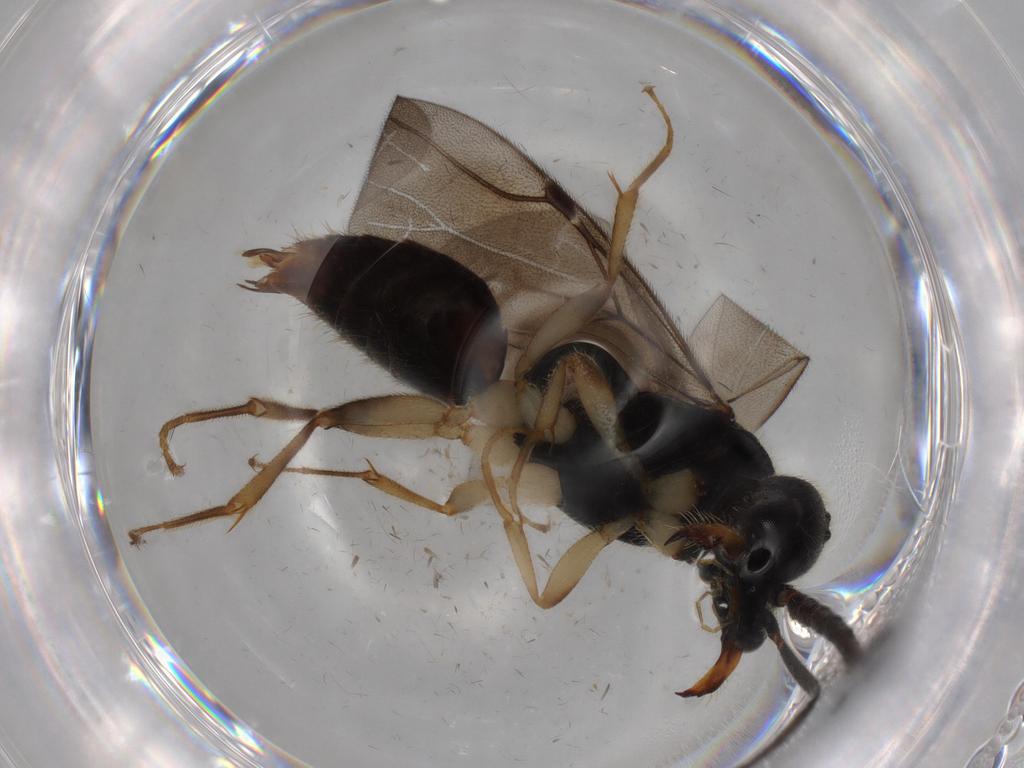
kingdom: Animalia
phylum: Arthropoda
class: Insecta
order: Hymenoptera
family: Bethylidae
